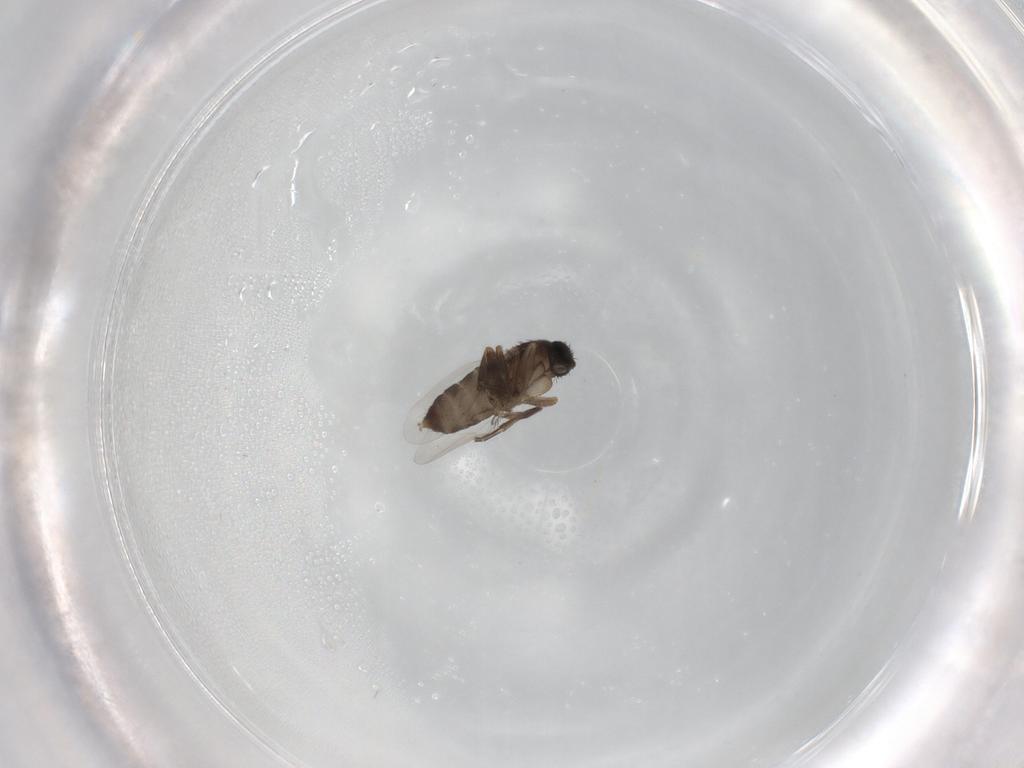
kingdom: Animalia
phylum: Arthropoda
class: Insecta
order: Diptera
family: Phoridae
